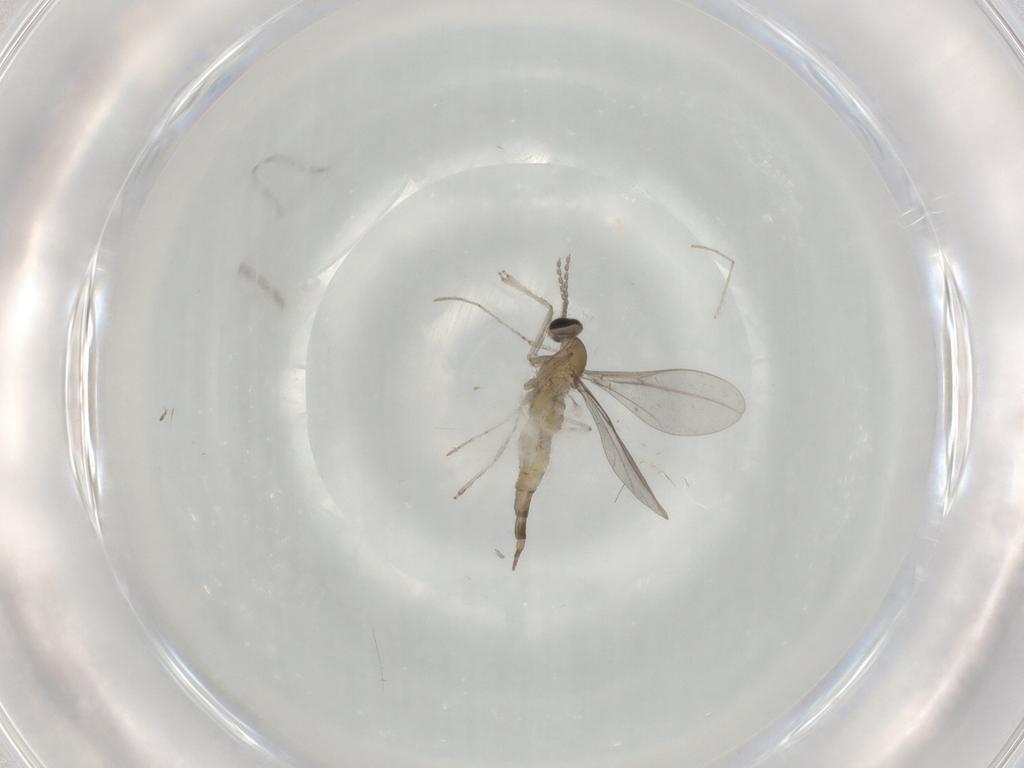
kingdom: Animalia
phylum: Arthropoda
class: Insecta
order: Diptera
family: Cecidomyiidae
